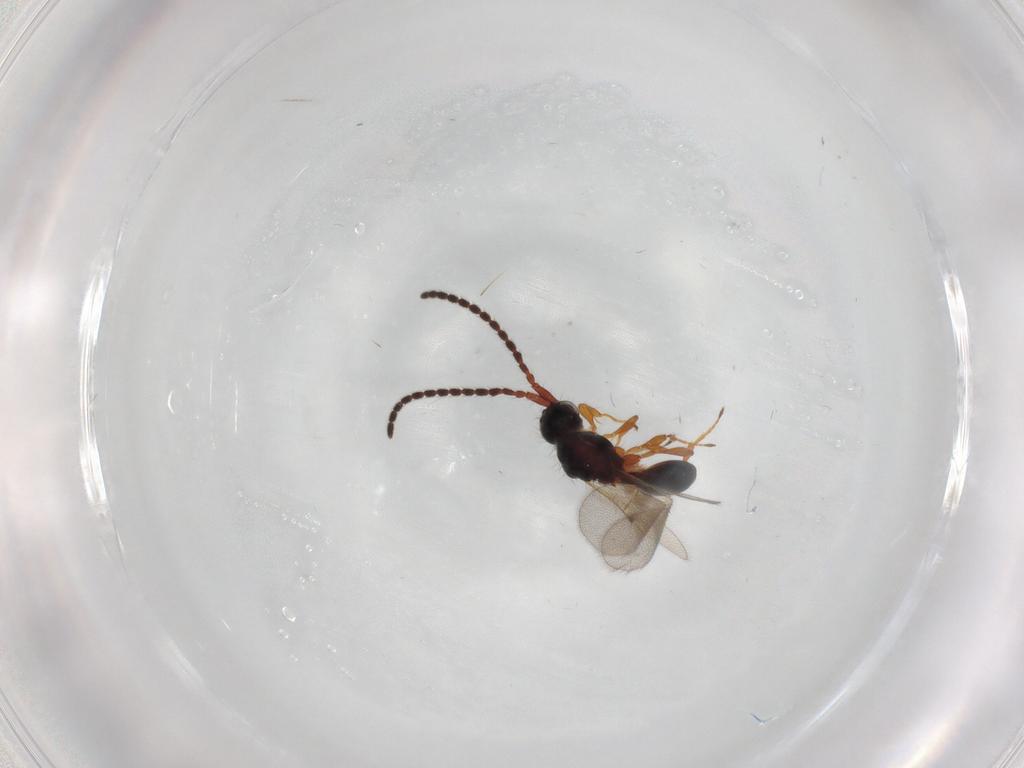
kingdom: Animalia
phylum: Arthropoda
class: Insecta
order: Hymenoptera
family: Diapriidae
